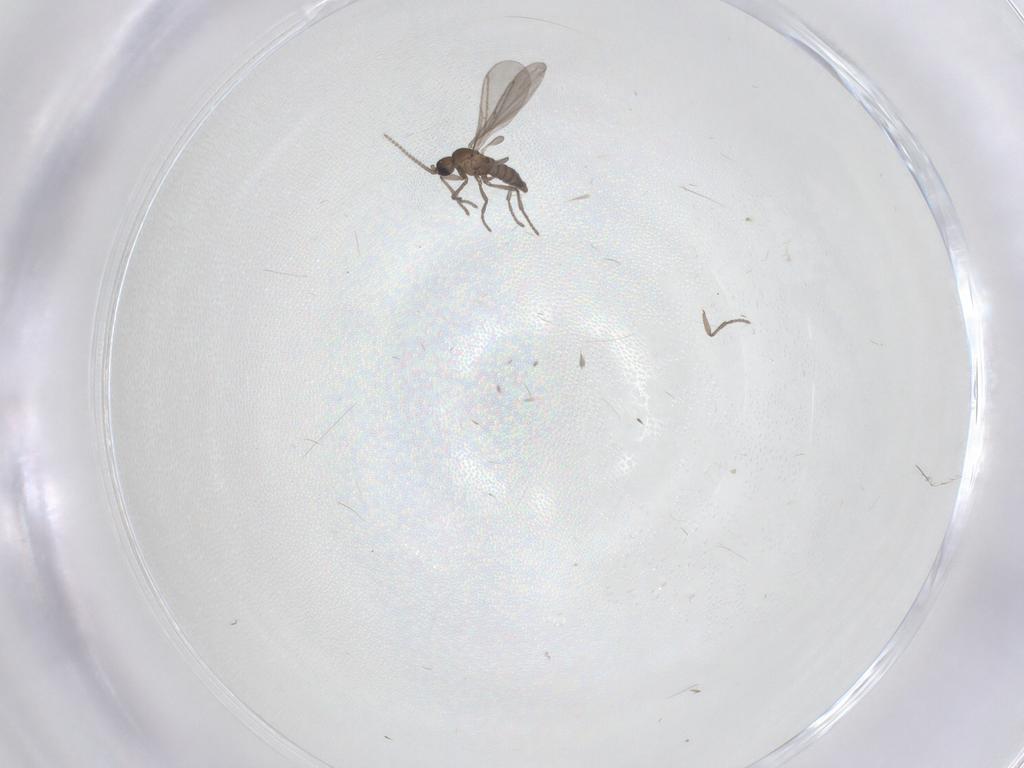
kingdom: Animalia
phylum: Arthropoda
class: Insecta
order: Diptera
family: Sciaridae
